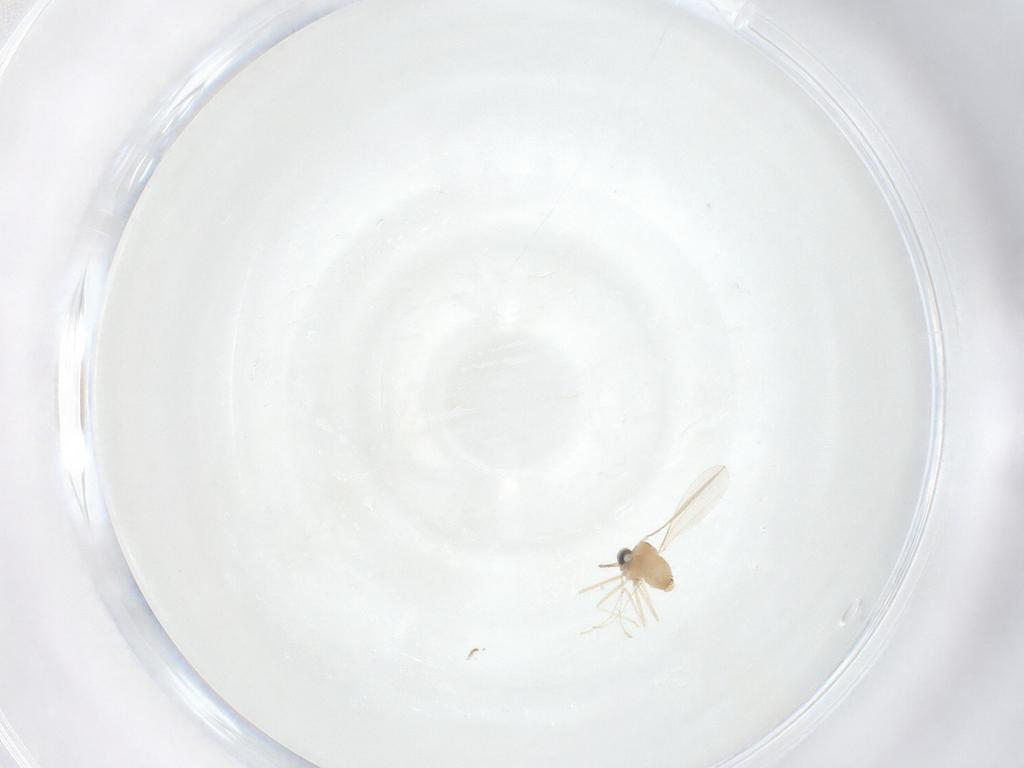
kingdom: Animalia
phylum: Arthropoda
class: Insecta
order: Diptera
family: Cecidomyiidae
